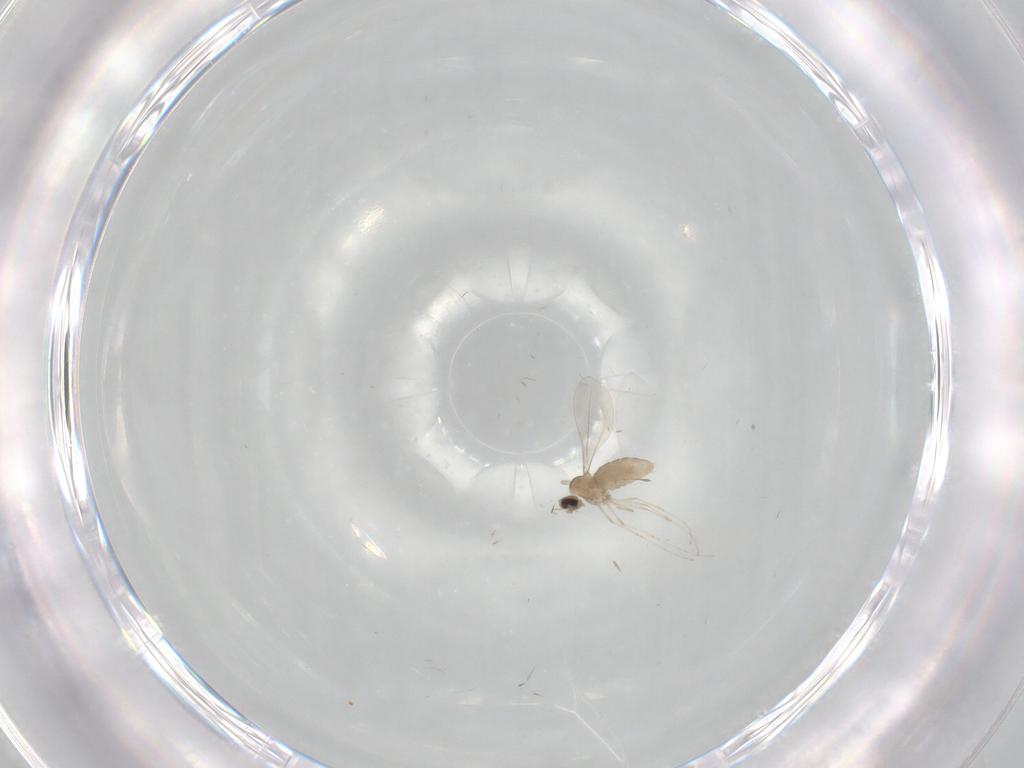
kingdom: Animalia
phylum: Arthropoda
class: Insecta
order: Diptera
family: Cecidomyiidae
